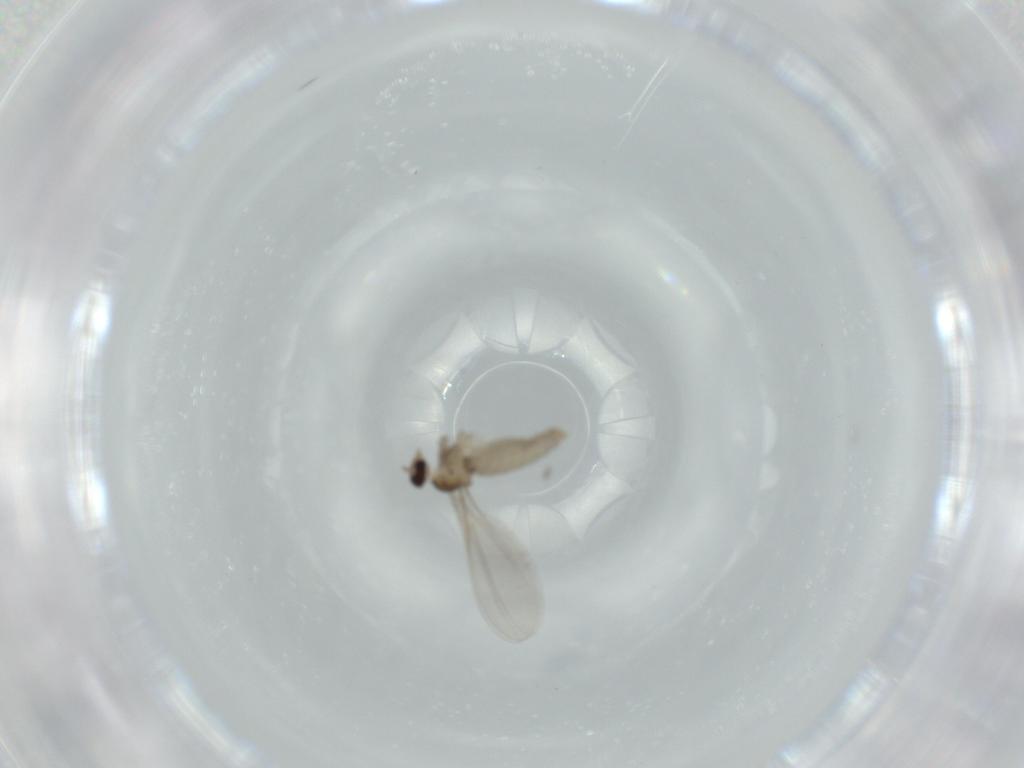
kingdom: Animalia
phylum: Arthropoda
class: Insecta
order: Diptera
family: Cecidomyiidae
